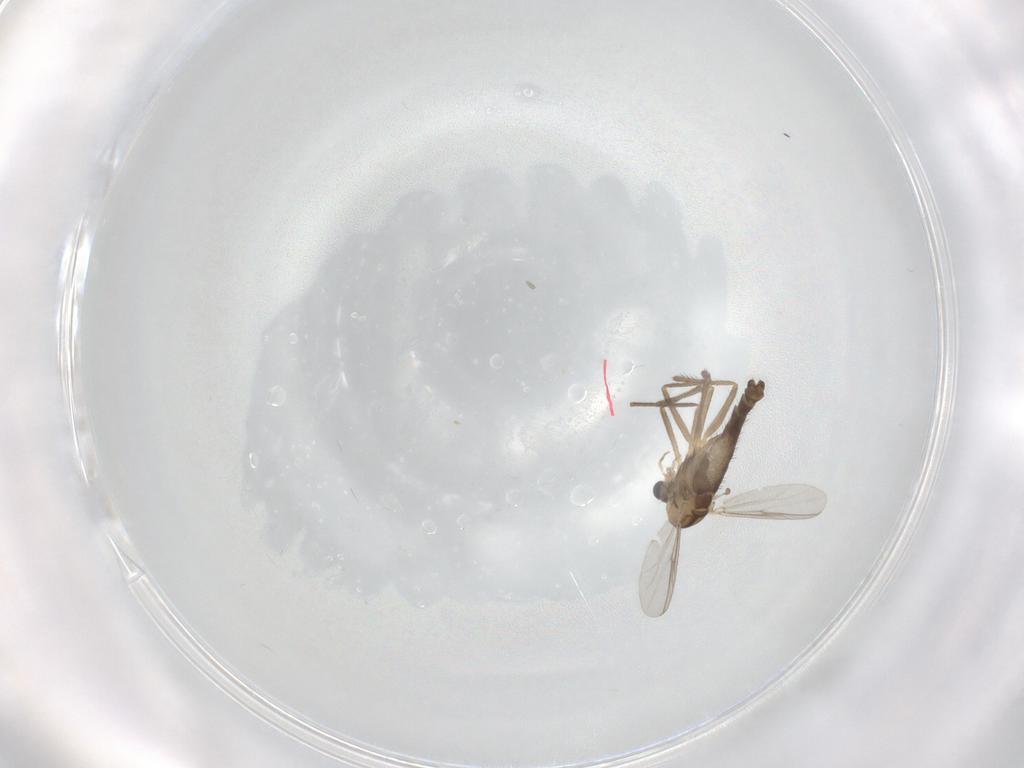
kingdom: Animalia
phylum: Arthropoda
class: Insecta
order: Diptera
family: Chironomidae
